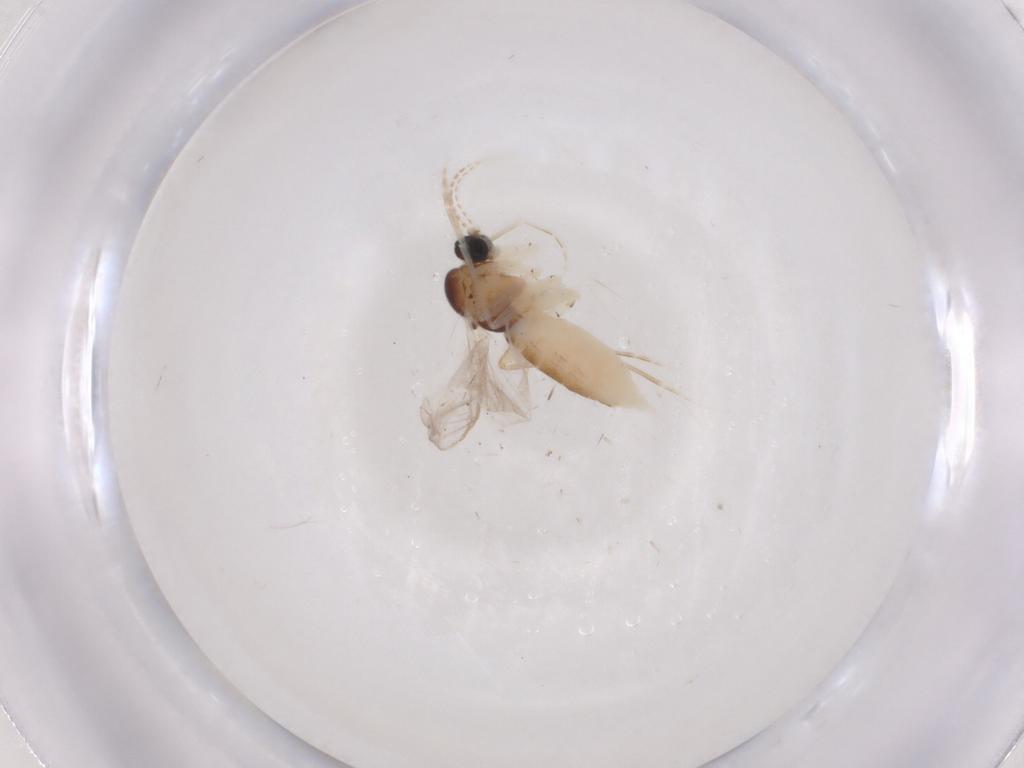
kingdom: Animalia
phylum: Arthropoda
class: Insecta
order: Diptera
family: Sciaridae
